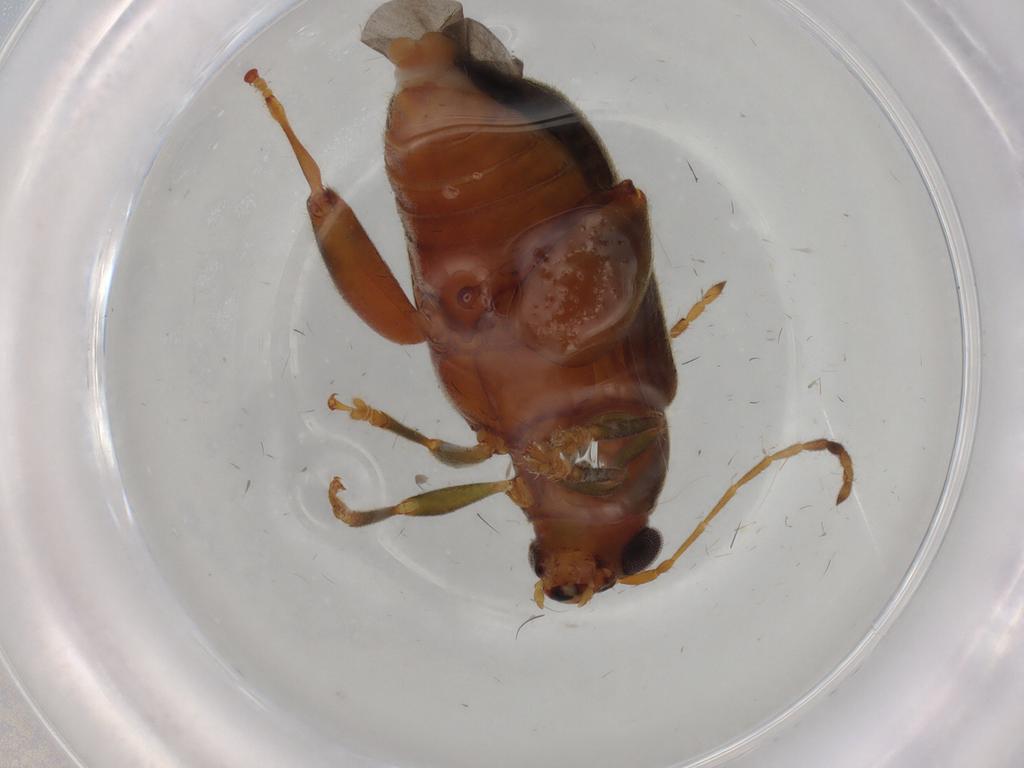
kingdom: Animalia
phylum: Arthropoda
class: Insecta
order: Coleoptera
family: Chrysomelidae
